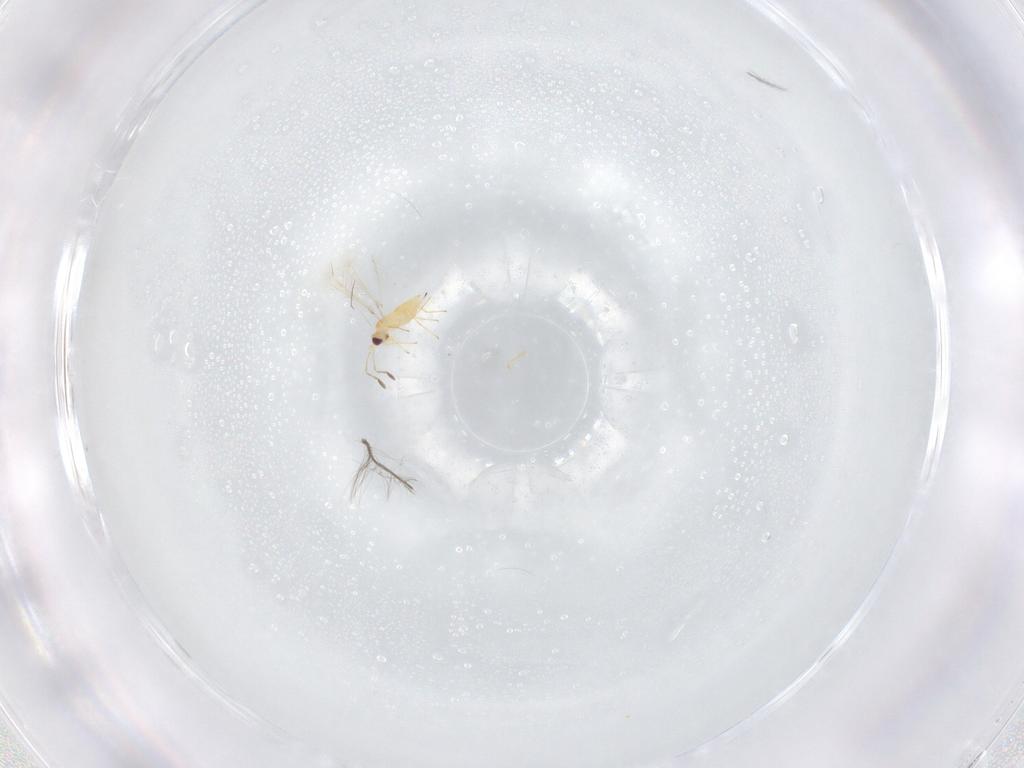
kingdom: Animalia
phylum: Arthropoda
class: Insecta
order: Hymenoptera
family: Mymaridae
